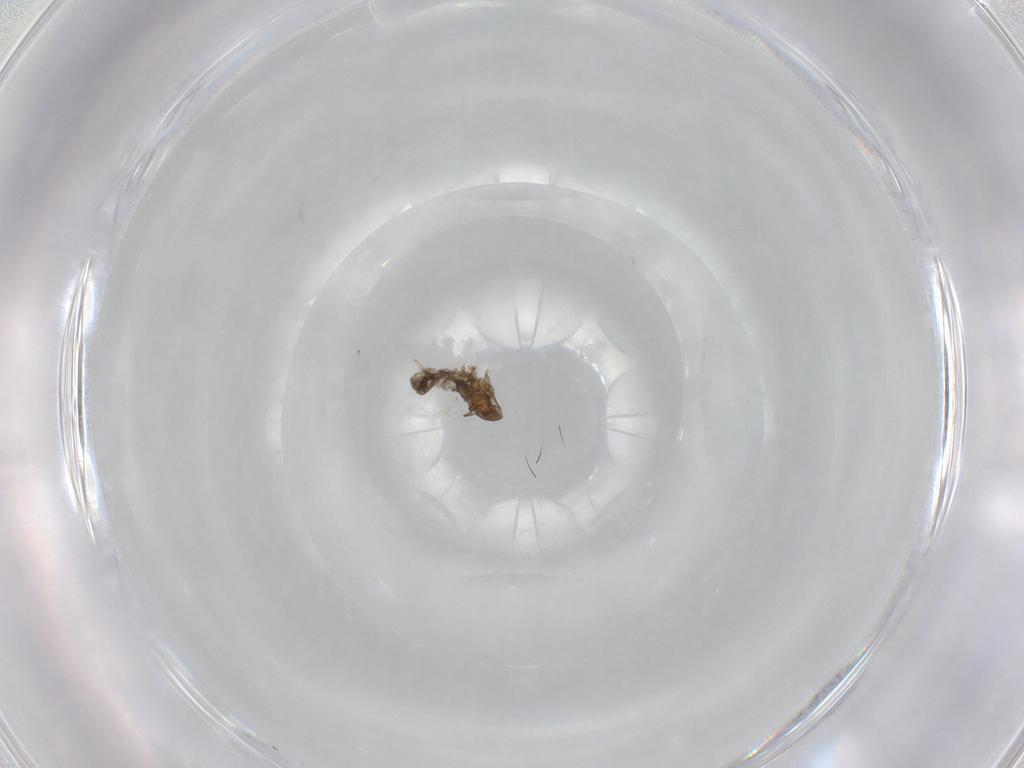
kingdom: Animalia
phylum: Arthropoda
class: Insecta
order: Diptera
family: Cecidomyiidae
